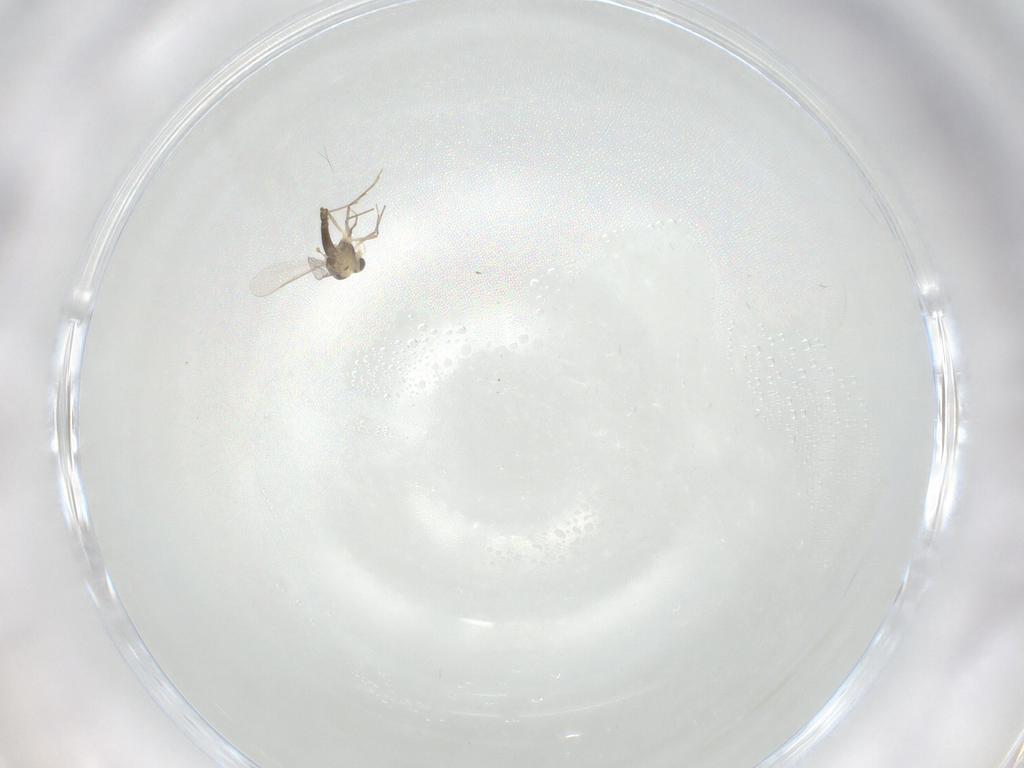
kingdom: Animalia
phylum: Arthropoda
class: Insecta
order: Diptera
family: Chironomidae
